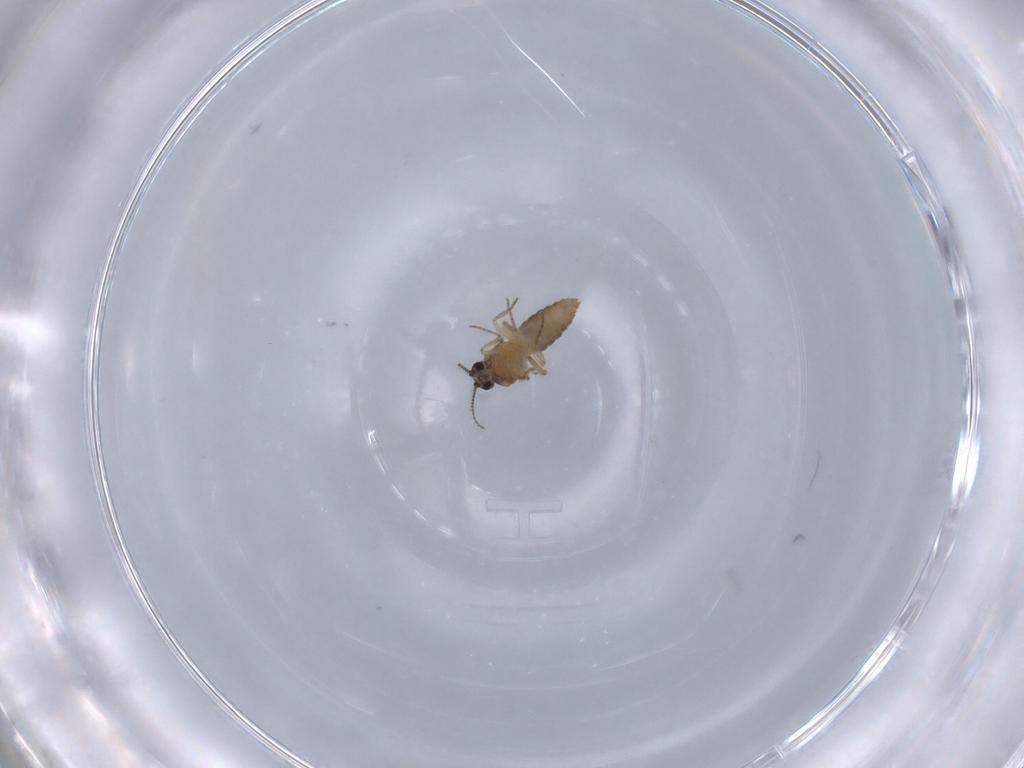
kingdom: Animalia
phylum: Arthropoda
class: Insecta
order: Diptera
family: Ceratopogonidae
